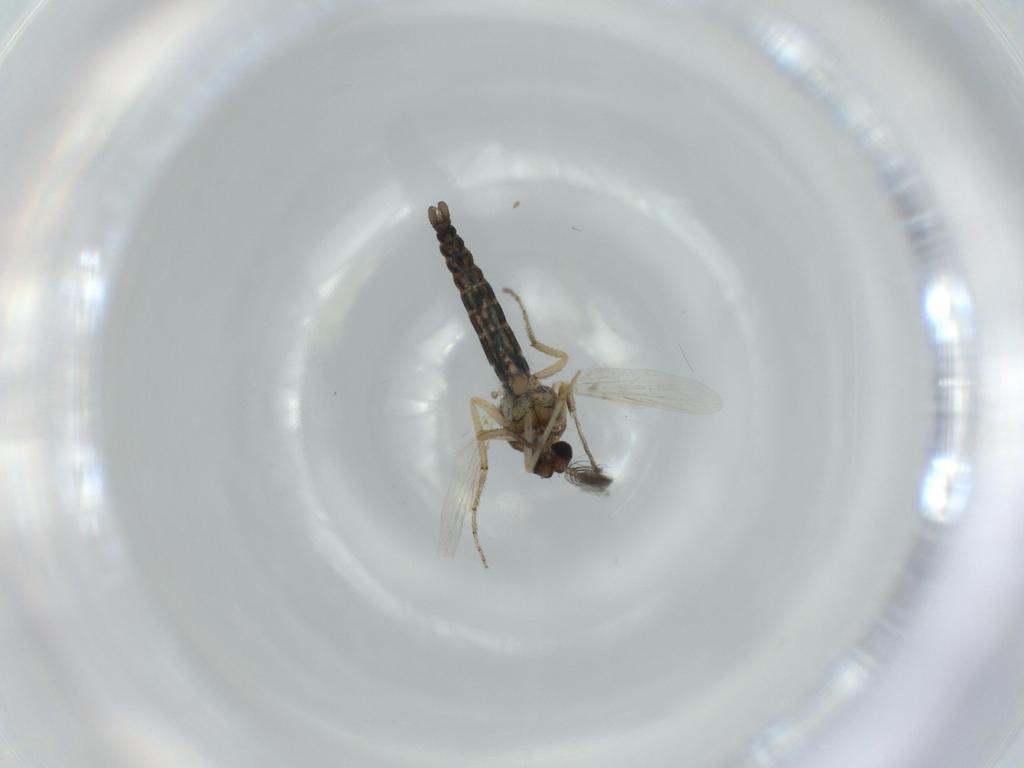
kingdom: Animalia
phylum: Arthropoda
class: Insecta
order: Diptera
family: Ceratopogonidae
